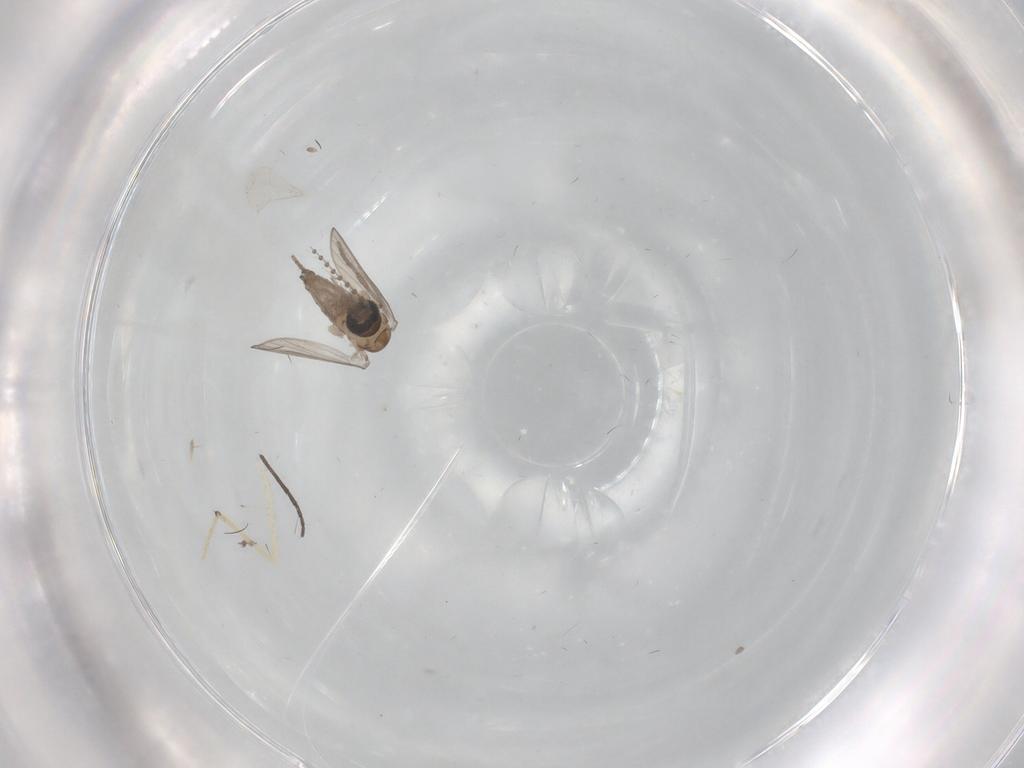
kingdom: Animalia
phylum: Arthropoda
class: Insecta
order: Diptera
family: Psychodidae
